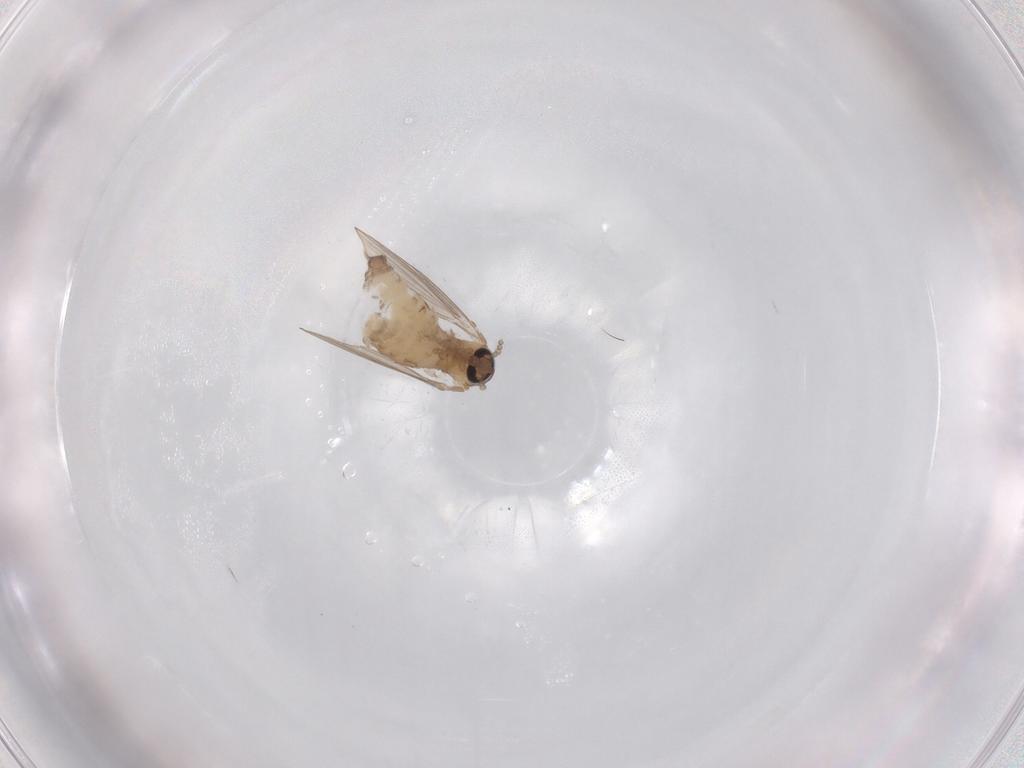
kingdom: Animalia
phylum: Arthropoda
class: Insecta
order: Diptera
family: Psychodidae
